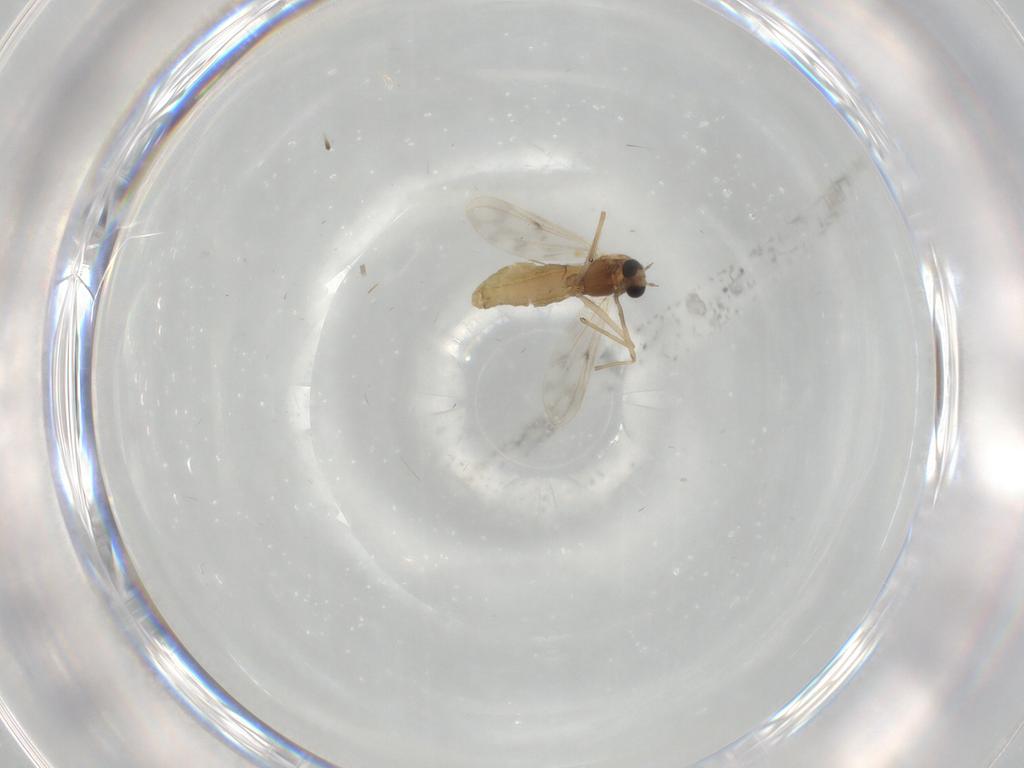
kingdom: Animalia
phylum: Arthropoda
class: Insecta
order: Diptera
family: Chironomidae
